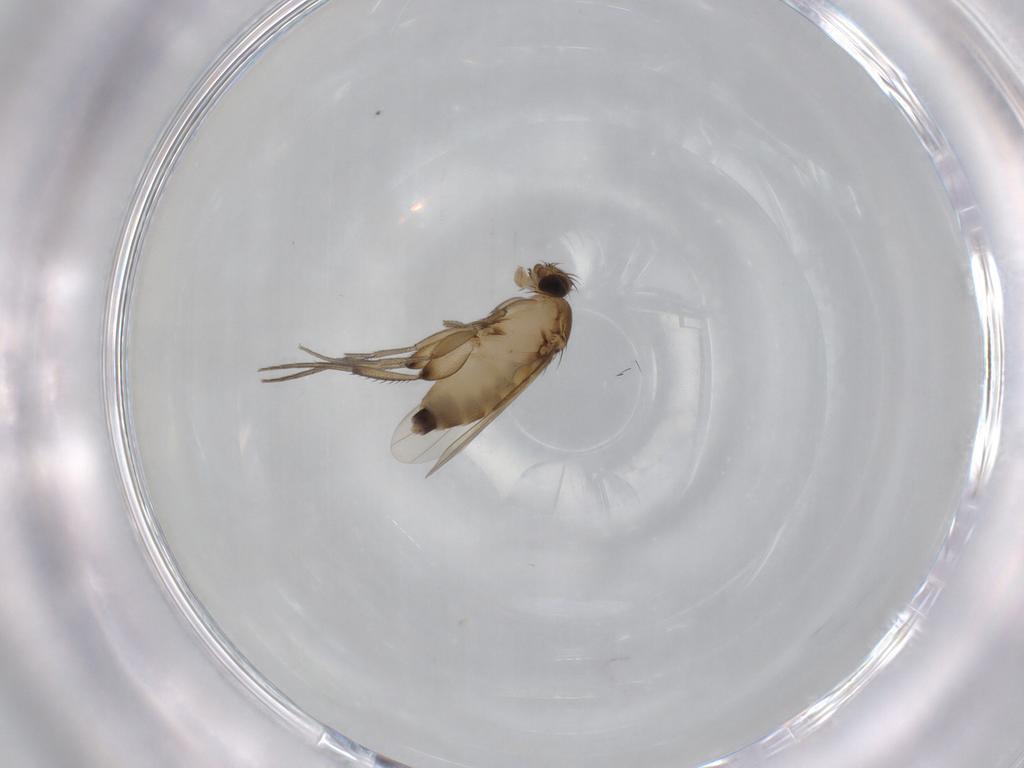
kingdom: Animalia
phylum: Arthropoda
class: Insecta
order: Diptera
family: Phoridae
